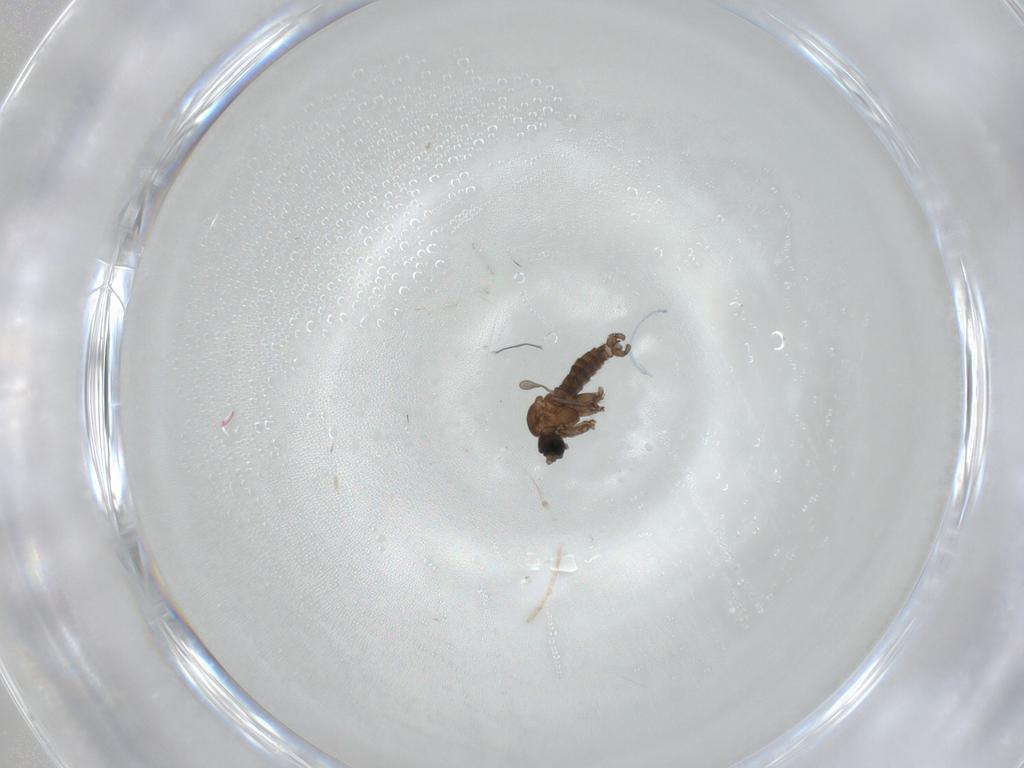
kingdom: Animalia
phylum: Arthropoda
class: Insecta
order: Diptera
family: Sciaridae
